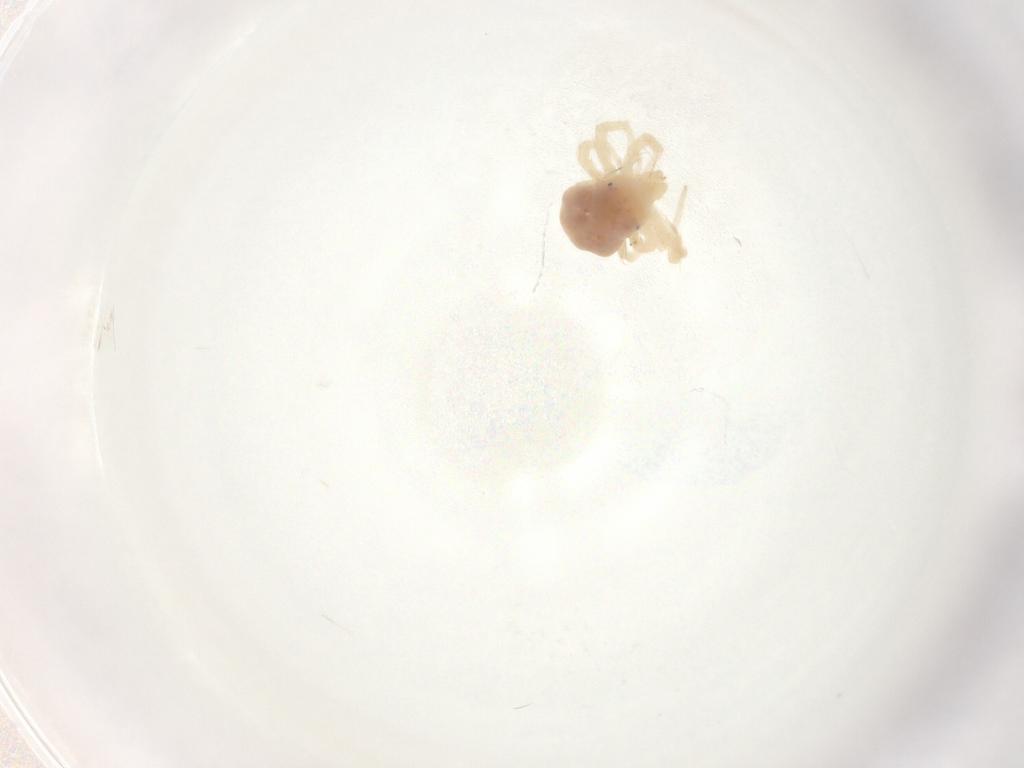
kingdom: Animalia
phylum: Arthropoda
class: Arachnida
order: Trombidiformes
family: Anystidae
